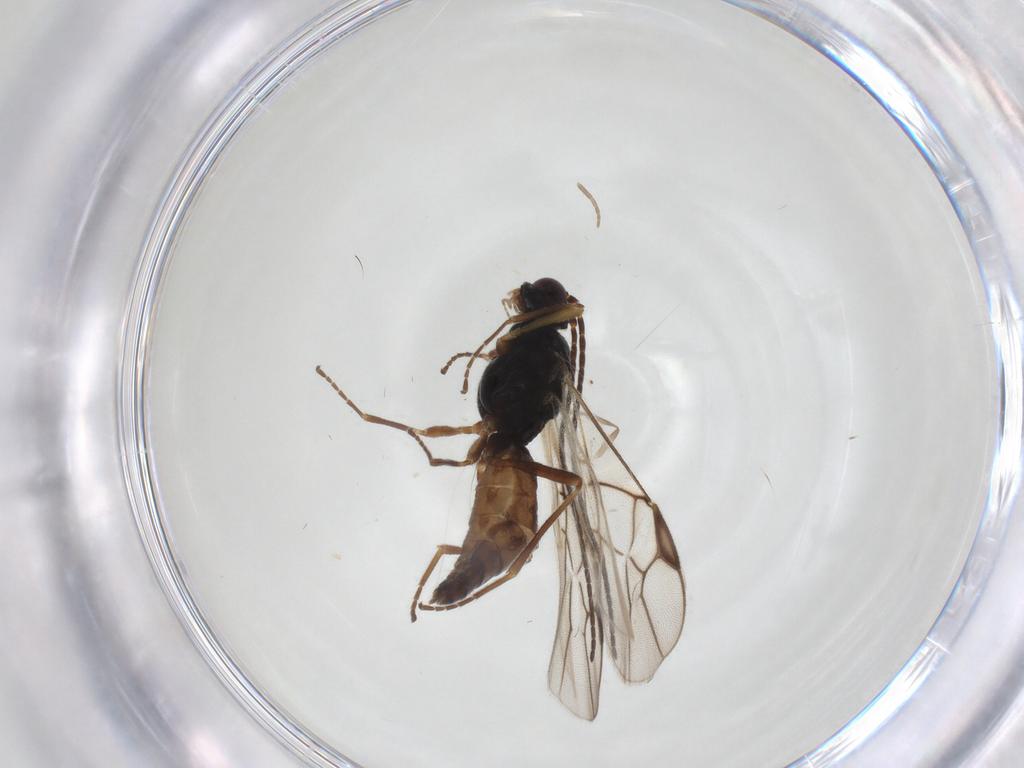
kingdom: Animalia
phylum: Arthropoda
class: Insecta
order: Hymenoptera
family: Braconidae
